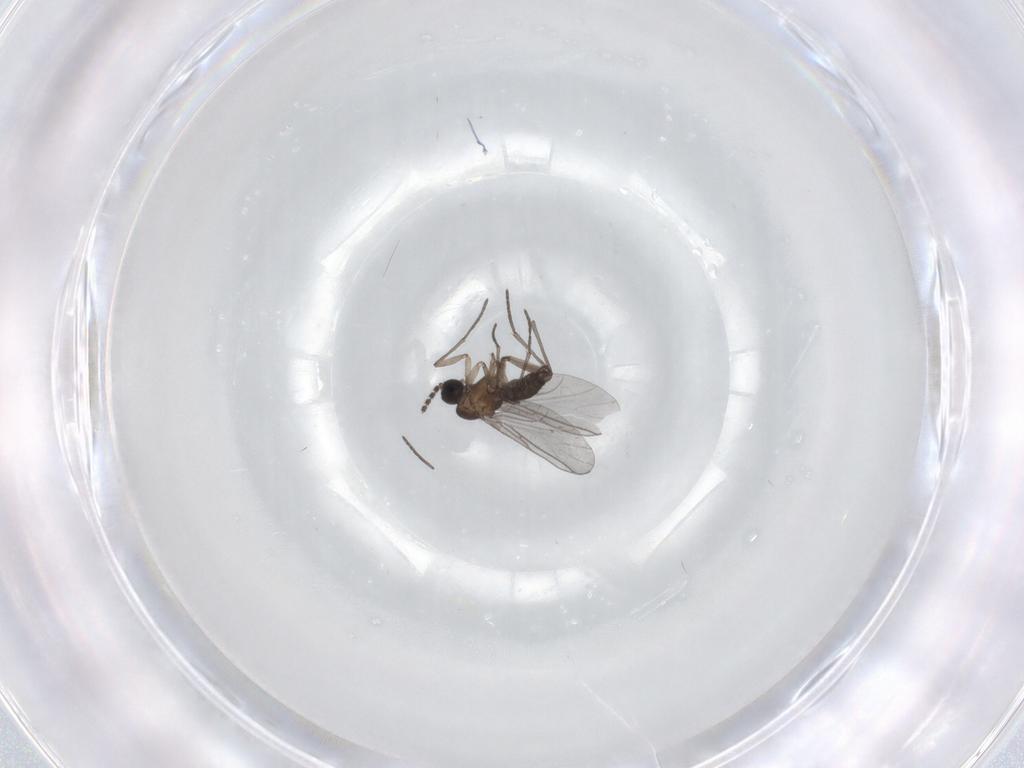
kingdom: Animalia
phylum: Arthropoda
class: Insecta
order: Diptera
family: Sciaridae
